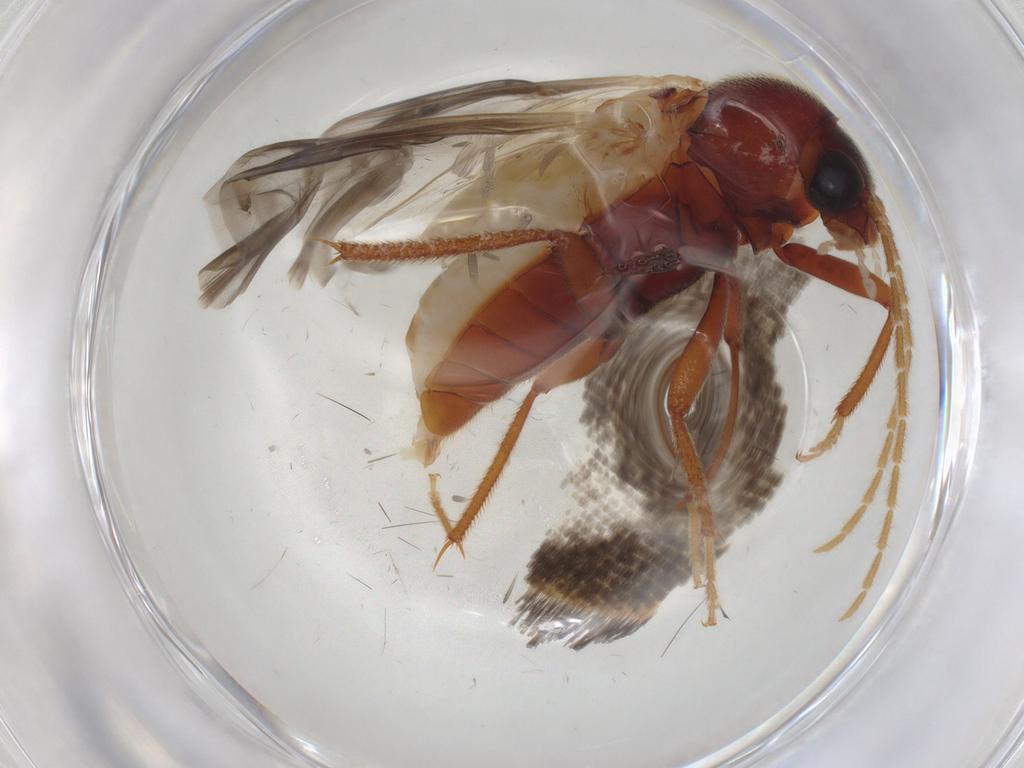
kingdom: Animalia
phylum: Arthropoda
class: Insecta
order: Coleoptera
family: Ptilodactylidae
